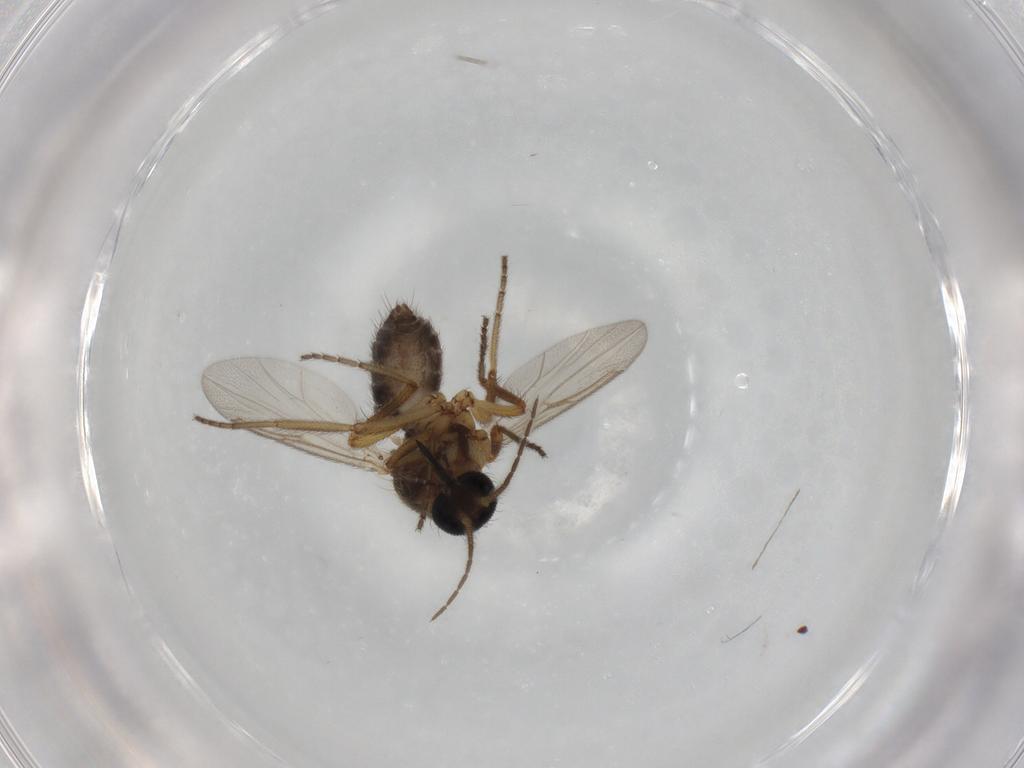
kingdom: Animalia
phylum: Arthropoda
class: Insecta
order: Diptera
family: Ceratopogonidae
